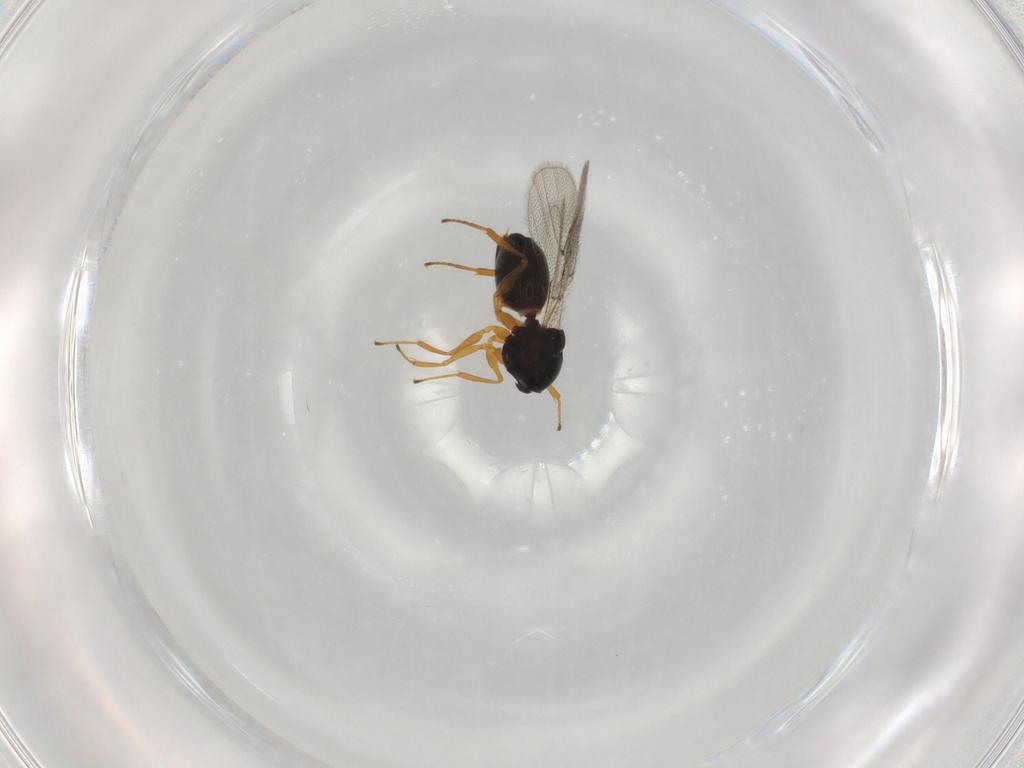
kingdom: Animalia
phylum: Arthropoda
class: Insecta
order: Hymenoptera
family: Figitidae
